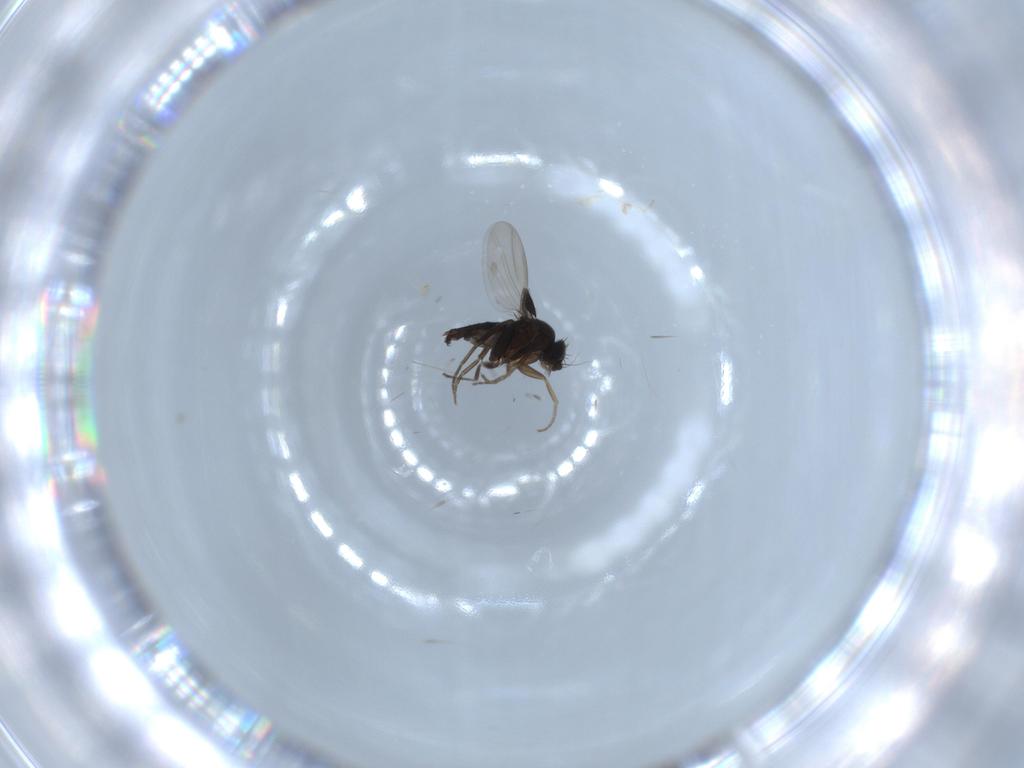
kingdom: Animalia
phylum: Arthropoda
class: Insecta
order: Diptera
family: Phoridae
